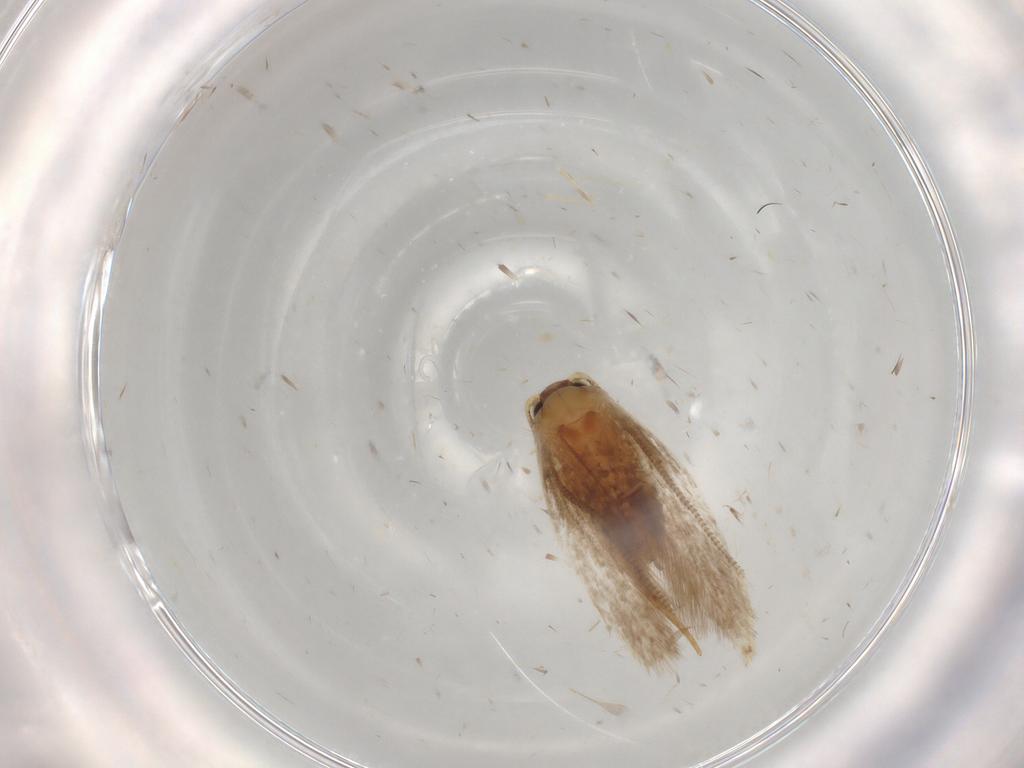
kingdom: Animalia
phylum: Arthropoda
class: Insecta
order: Lepidoptera
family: Tineidae
